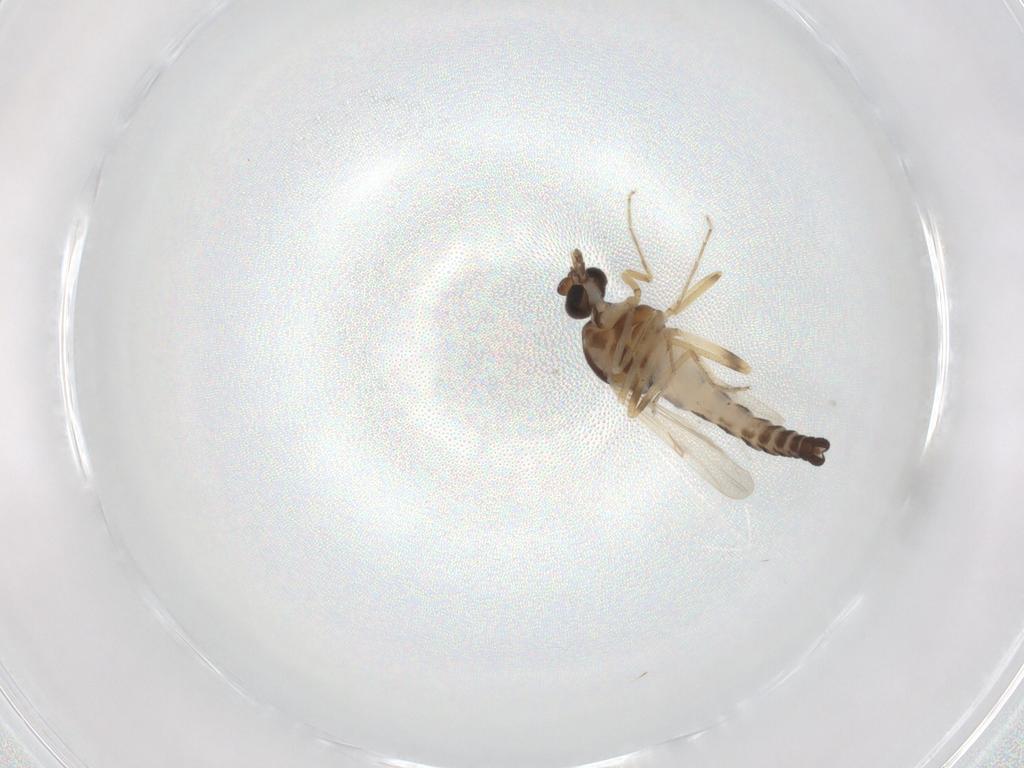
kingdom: Animalia
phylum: Arthropoda
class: Insecta
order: Diptera
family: Ceratopogonidae
